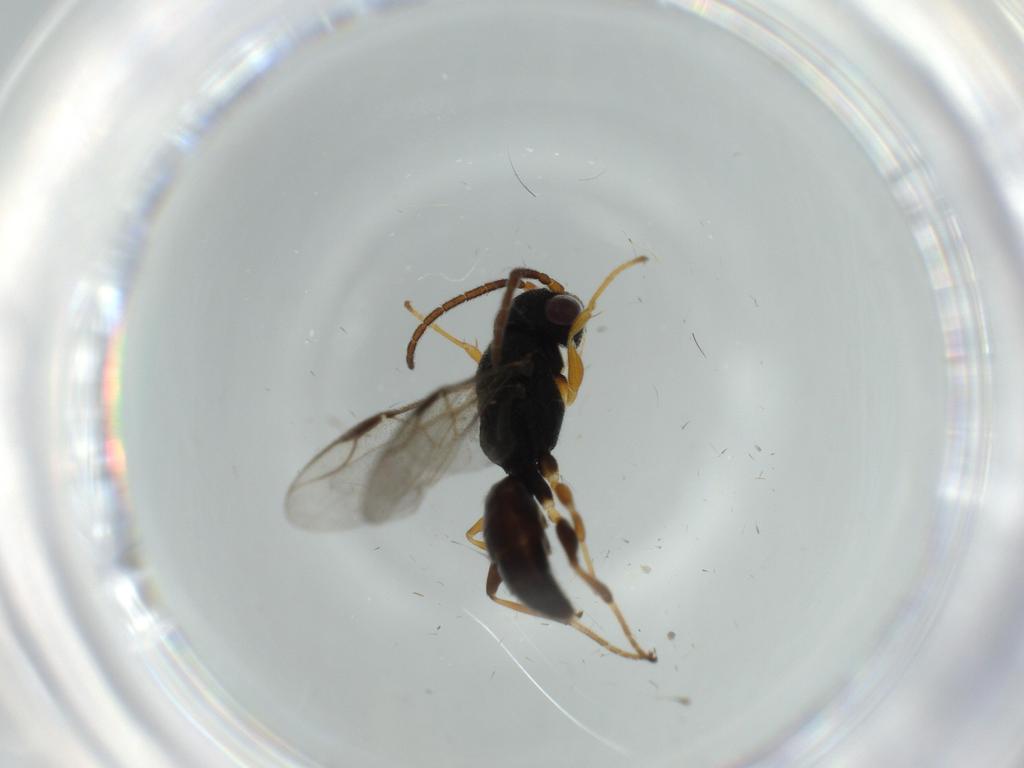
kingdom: Animalia
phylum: Arthropoda
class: Insecta
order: Hymenoptera
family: Dryinidae
